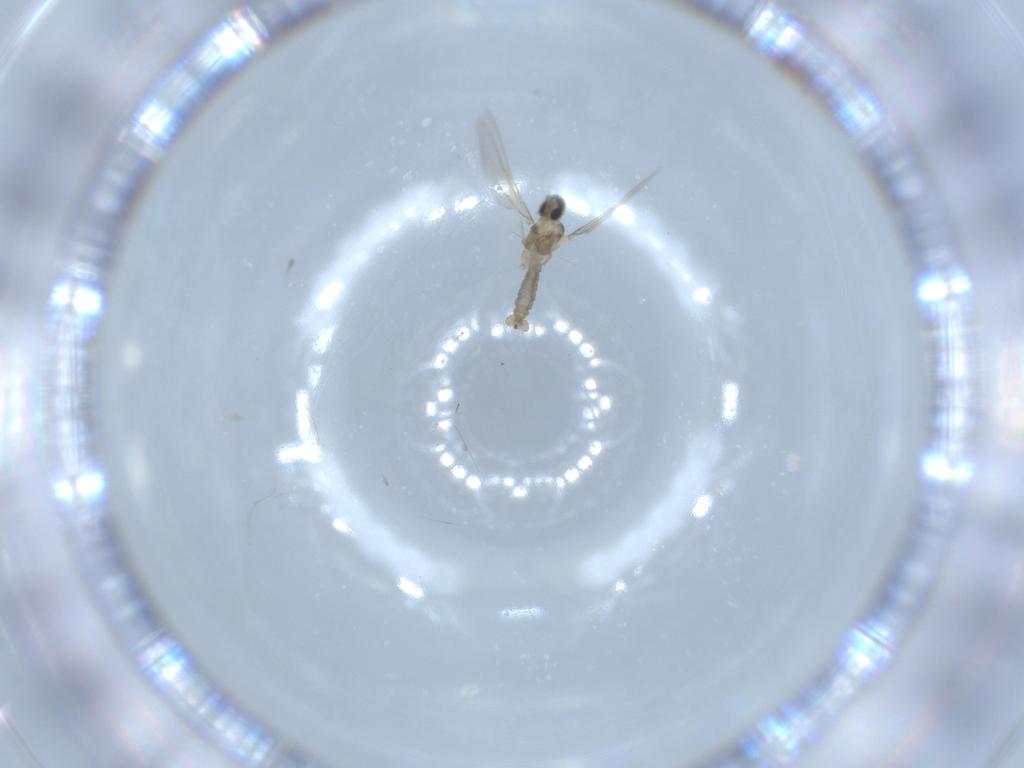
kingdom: Animalia
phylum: Arthropoda
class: Insecta
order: Diptera
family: Cecidomyiidae
